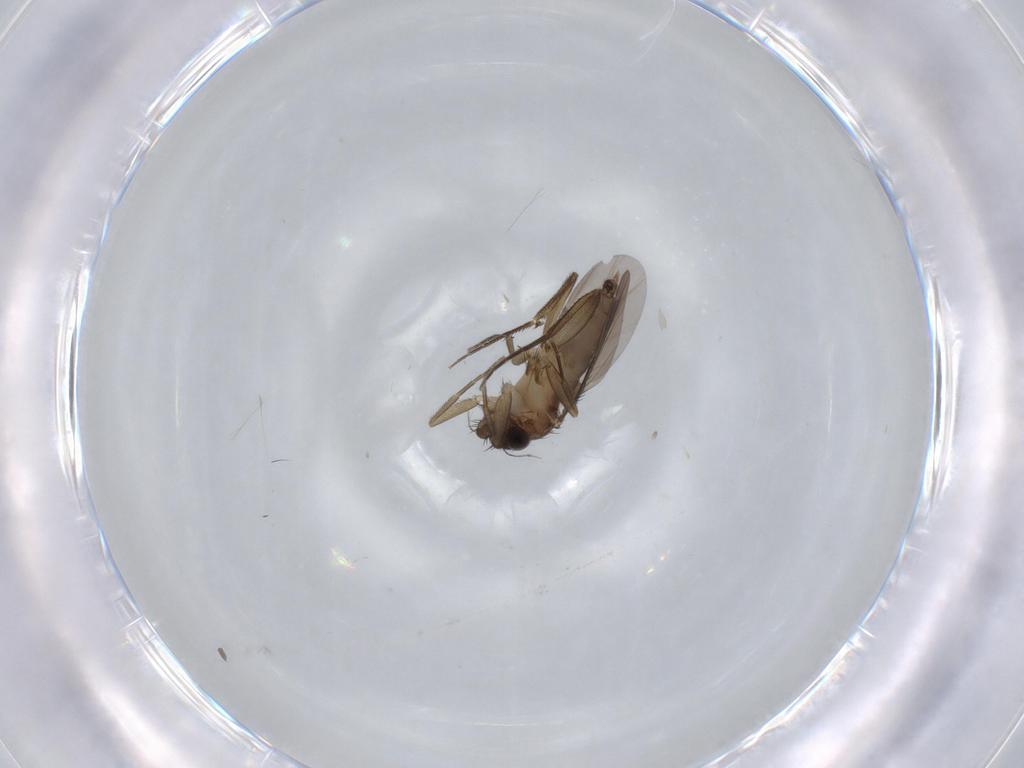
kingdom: Animalia
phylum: Arthropoda
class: Insecta
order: Diptera
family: Phoridae
